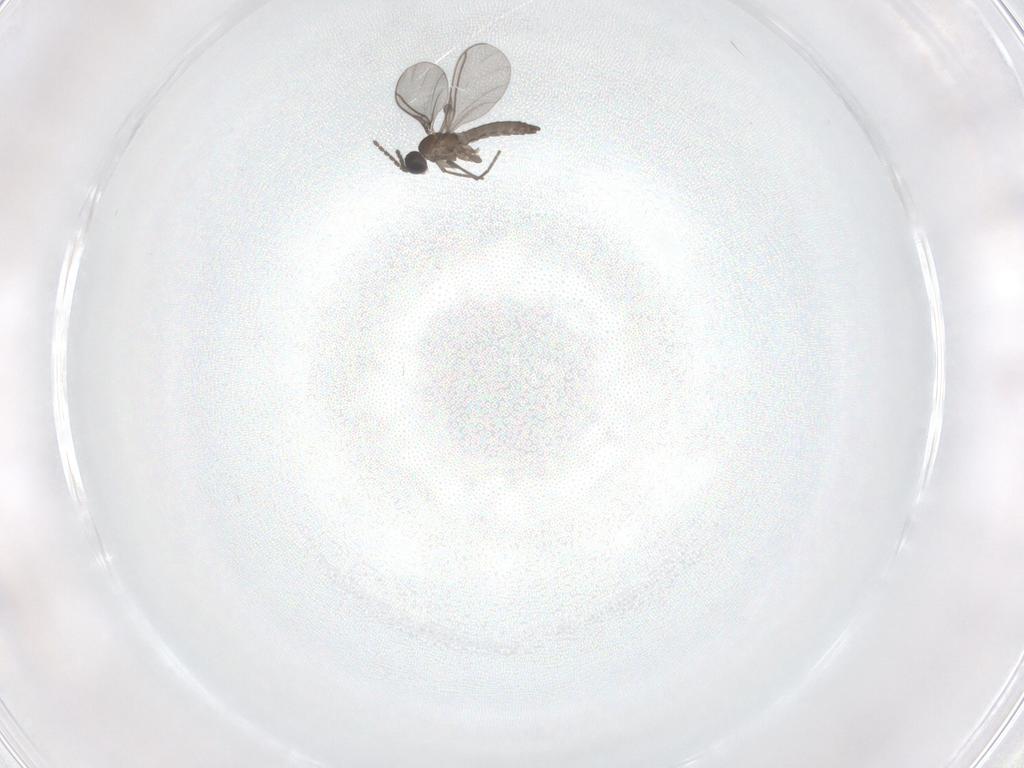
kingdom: Animalia
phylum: Arthropoda
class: Insecta
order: Diptera
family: Sciaridae
